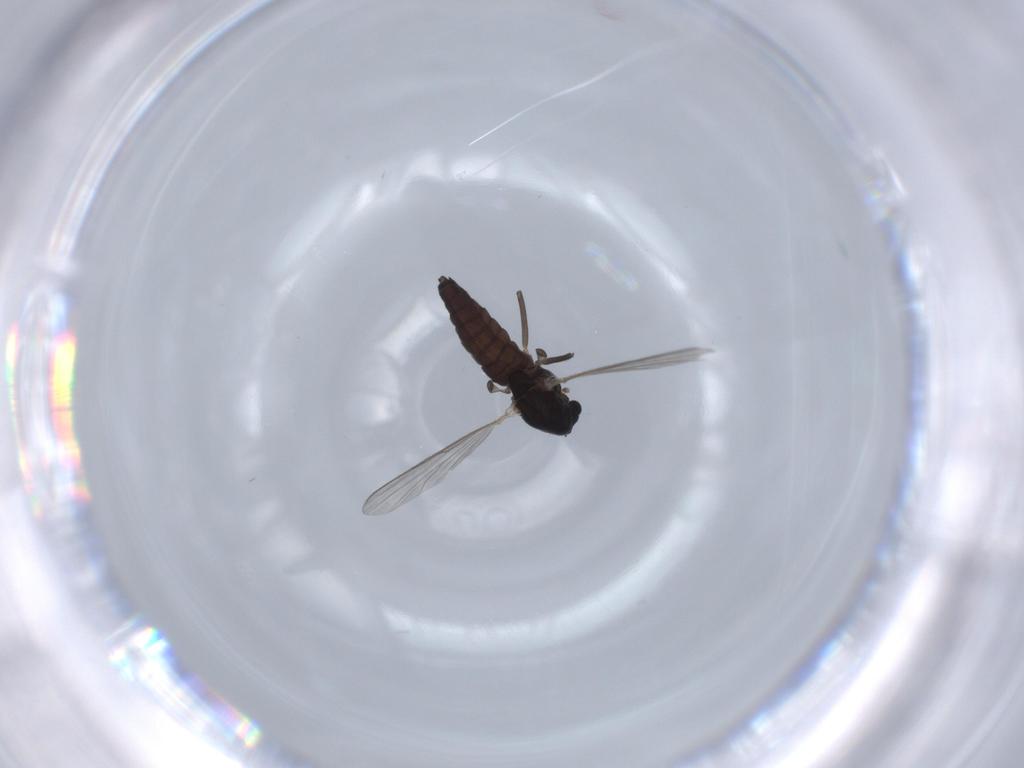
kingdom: Animalia
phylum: Arthropoda
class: Insecta
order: Diptera
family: Chironomidae
